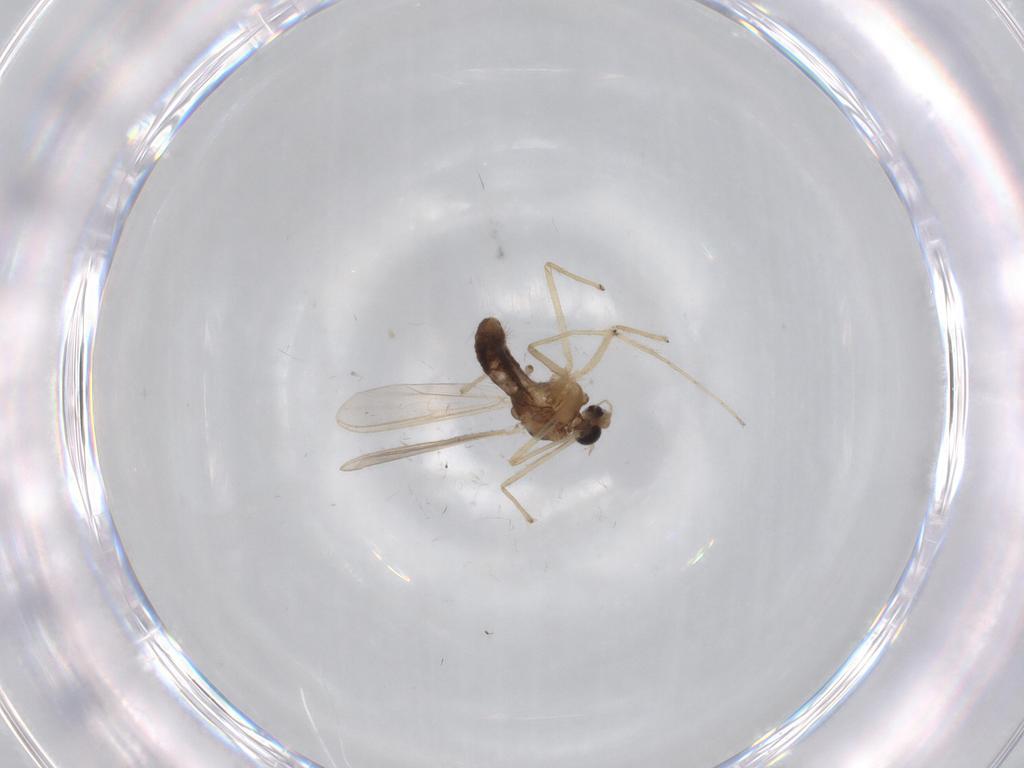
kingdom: Animalia
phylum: Arthropoda
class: Insecta
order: Diptera
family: Chironomidae
